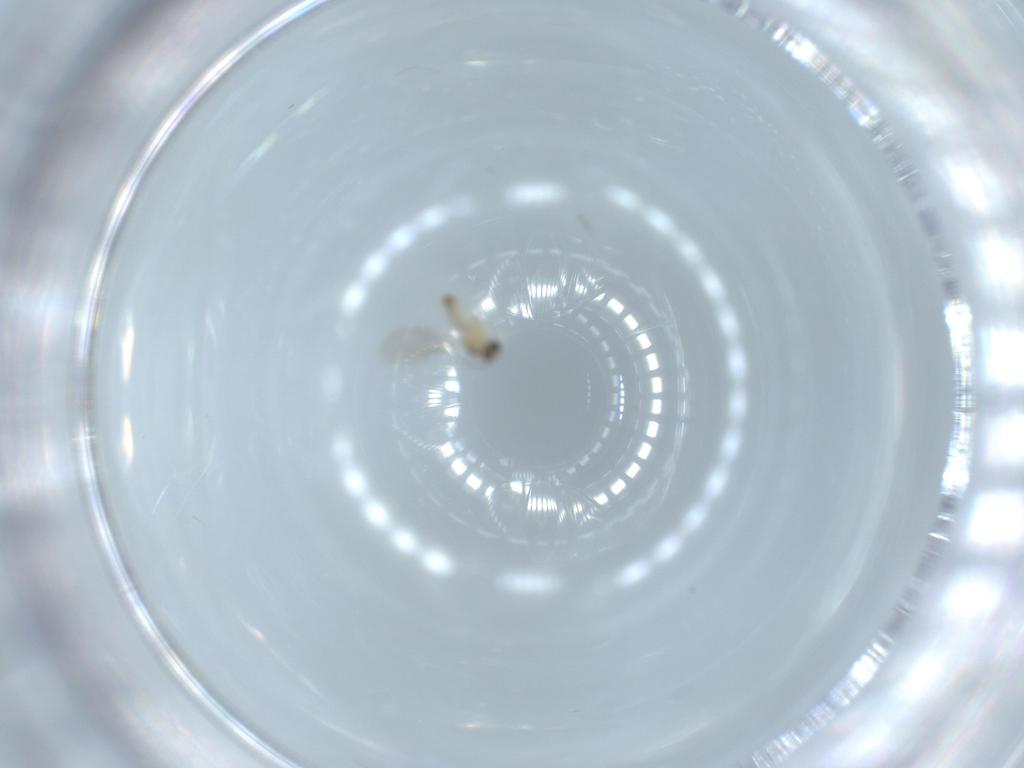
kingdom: Animalia
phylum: Arthropoda
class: Insecta
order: Diptera
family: Cecidomyiidae
